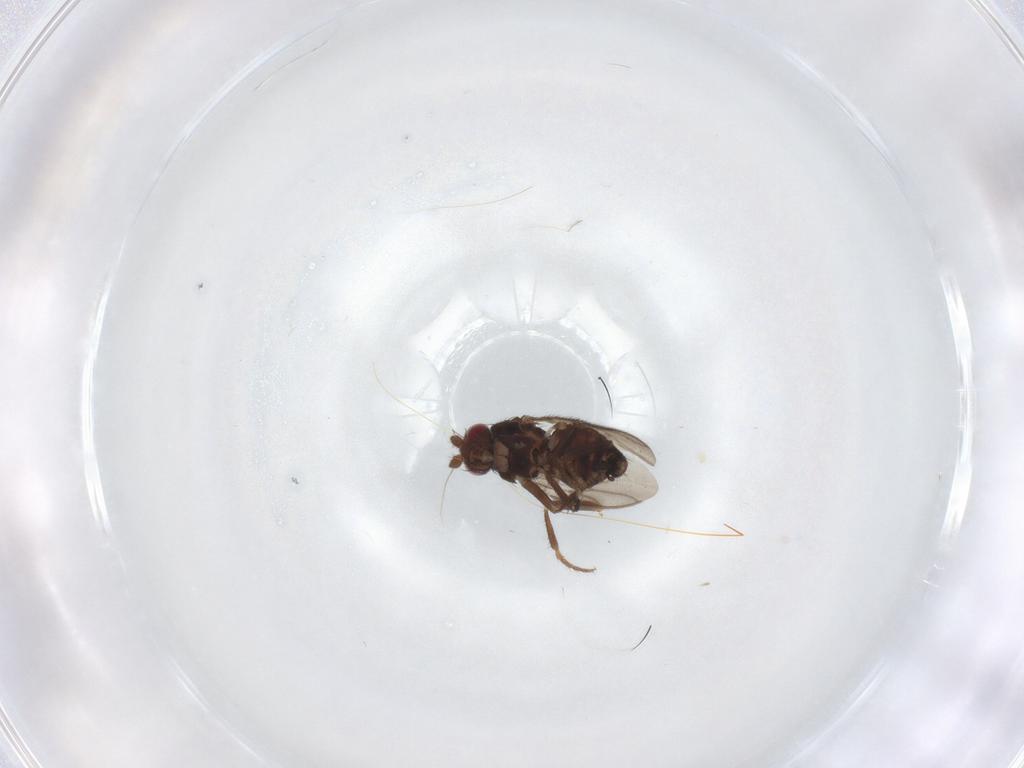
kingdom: Animalia
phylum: Arthropoda
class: Insecta
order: Diptera
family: Sphaeroceridae
